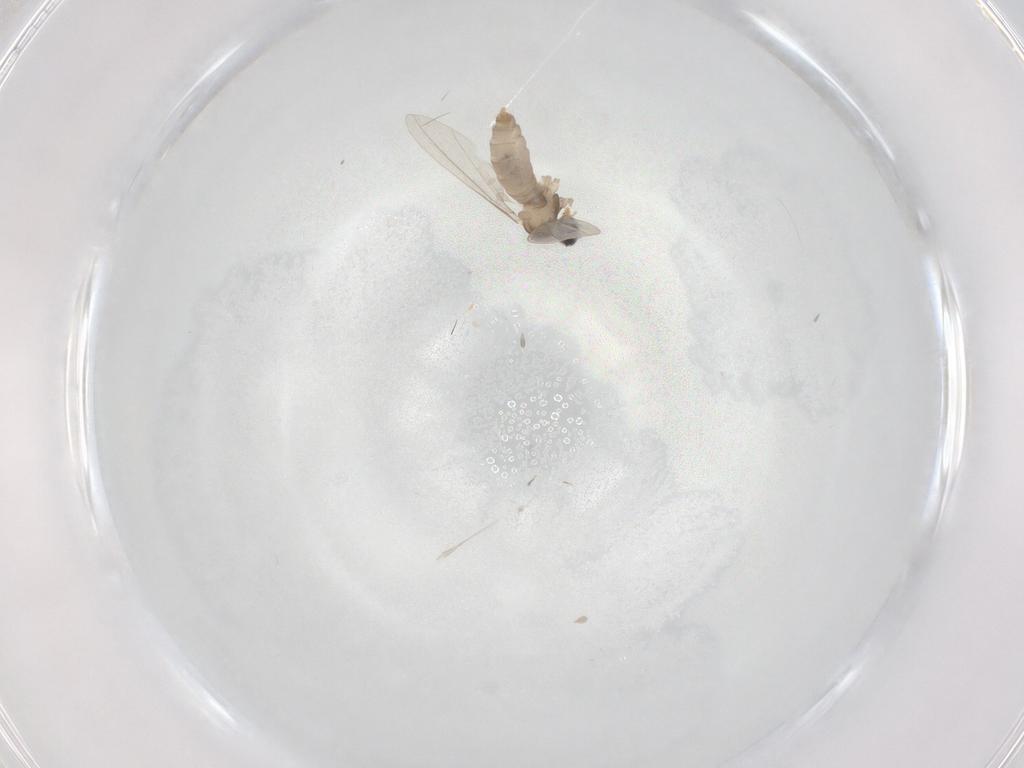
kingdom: Animalia
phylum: Arthropoda
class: Insecta
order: Diptera
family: Cecidomyiidae
